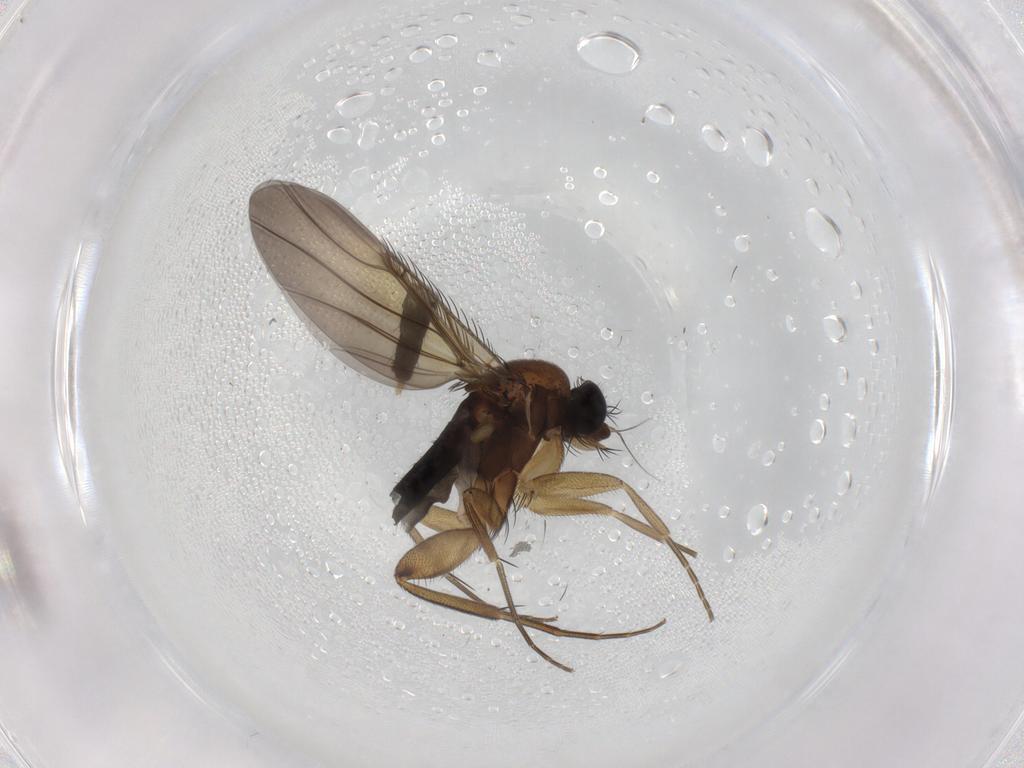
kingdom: Animalia
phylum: Arthropoda
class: Insecta
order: Diptera
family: Phoridae
